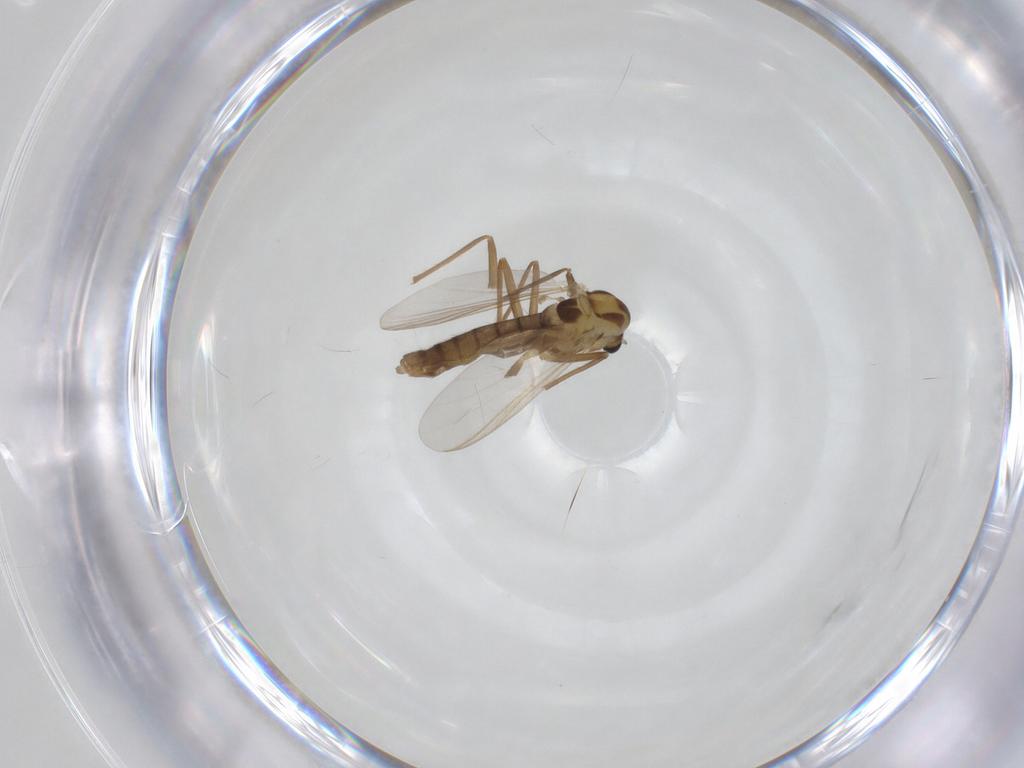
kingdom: Animalia
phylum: Arthropoda
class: Insecta
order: Diptera
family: Chironomidae
